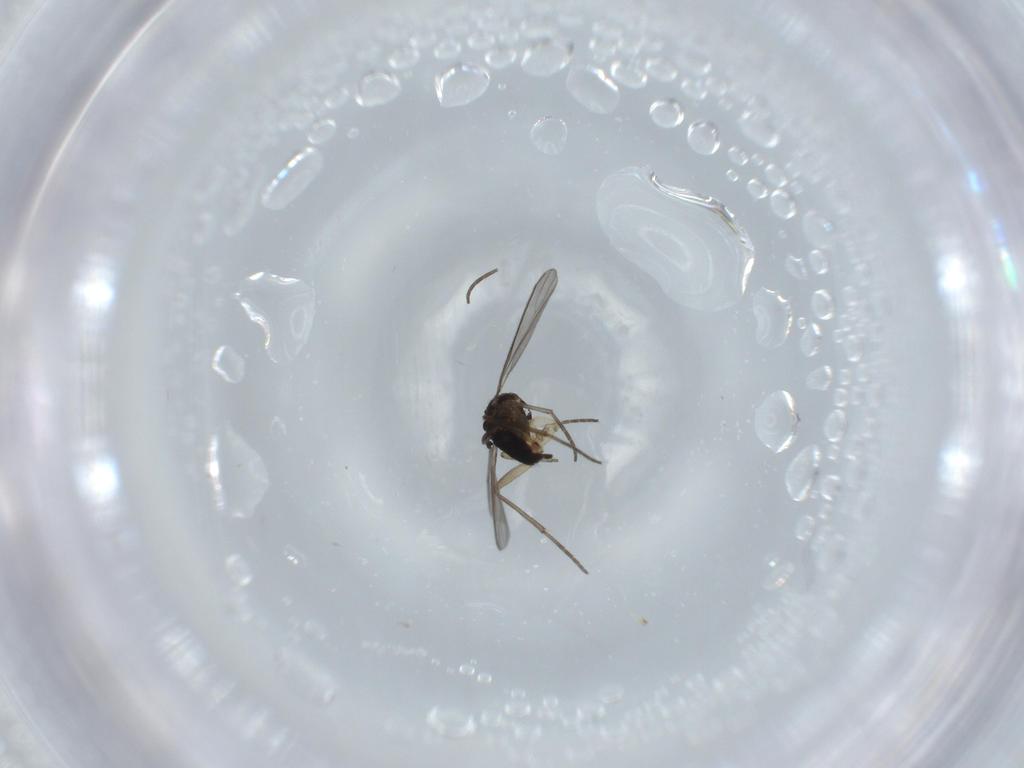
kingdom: Animalia
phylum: Arthropoda
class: Insecta
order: Diptera
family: Sciaridae
